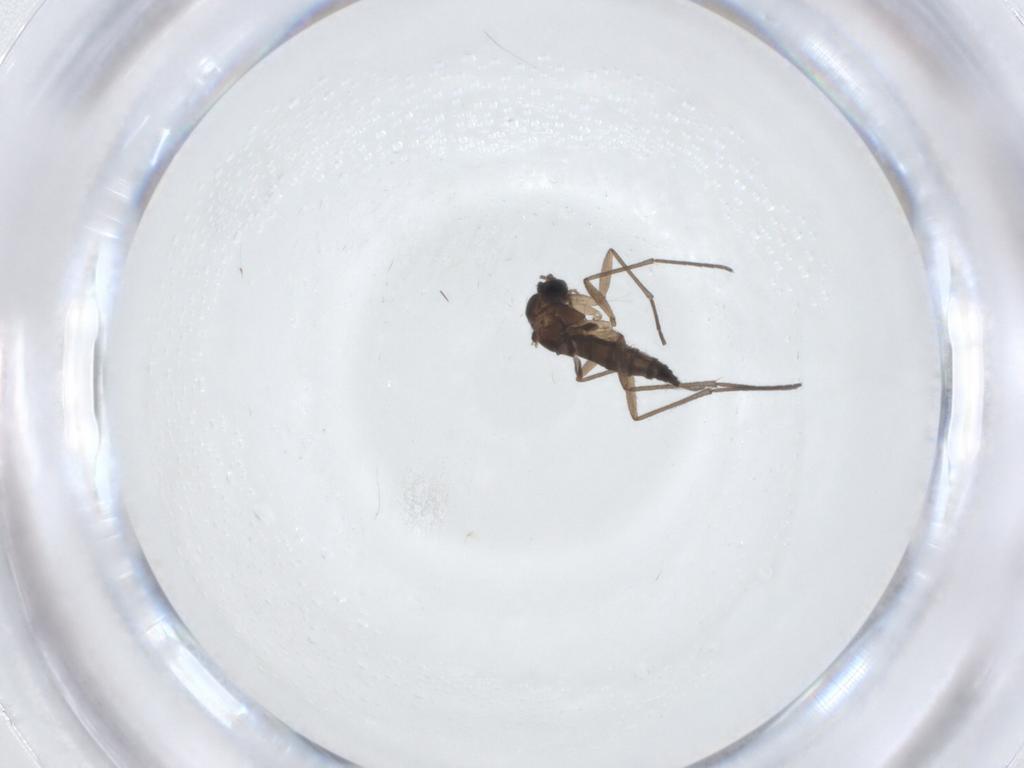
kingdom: Animalia
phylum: Arthropoda
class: Insecta
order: Diptera
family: Sciaridae
